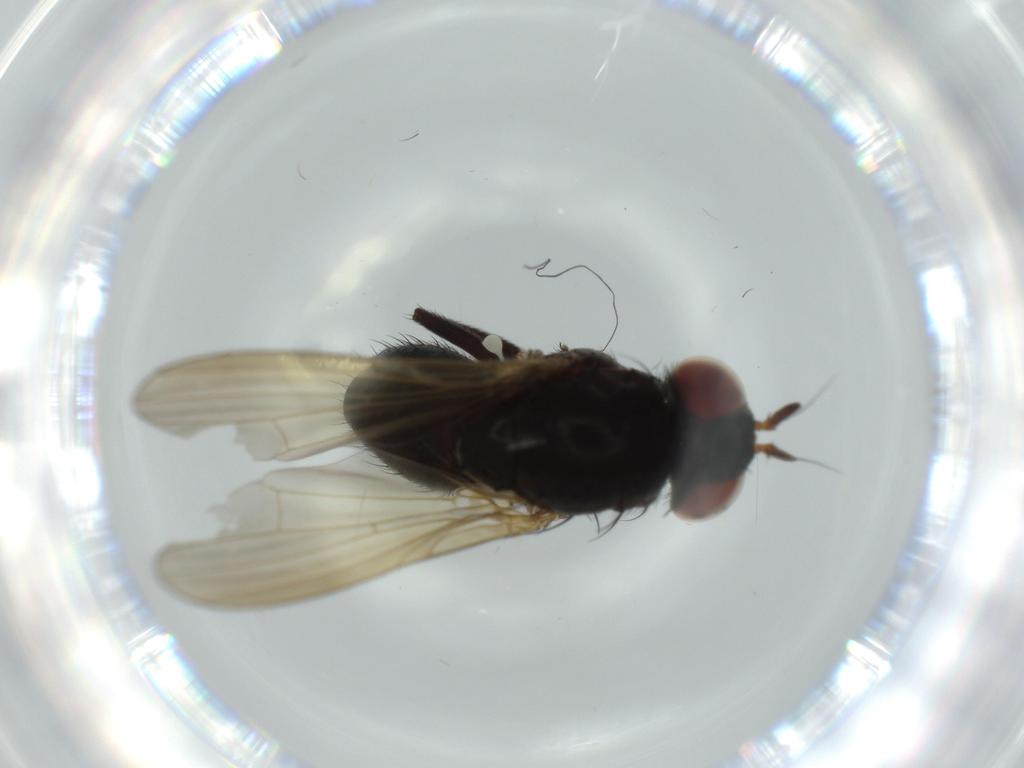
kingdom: Animalia
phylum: Arthropoda
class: Insecta
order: Diptera
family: Lauxaniidae
